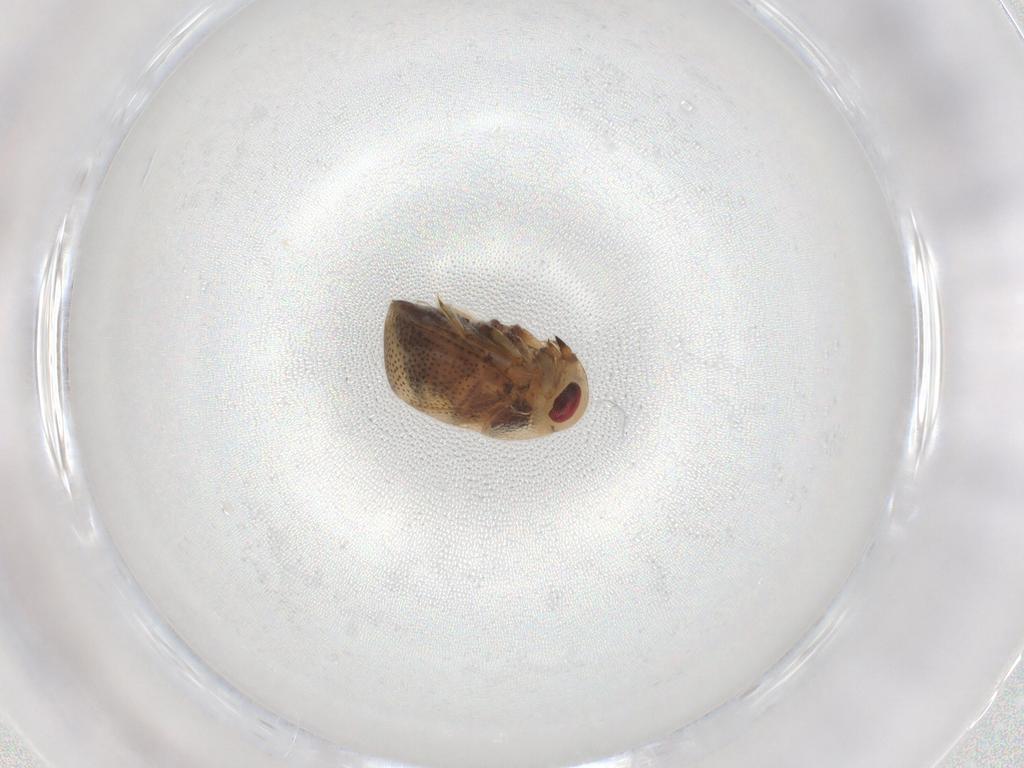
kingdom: Animalia
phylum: Arthropoda
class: Insecta
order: Hemiptera
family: Pleidae
